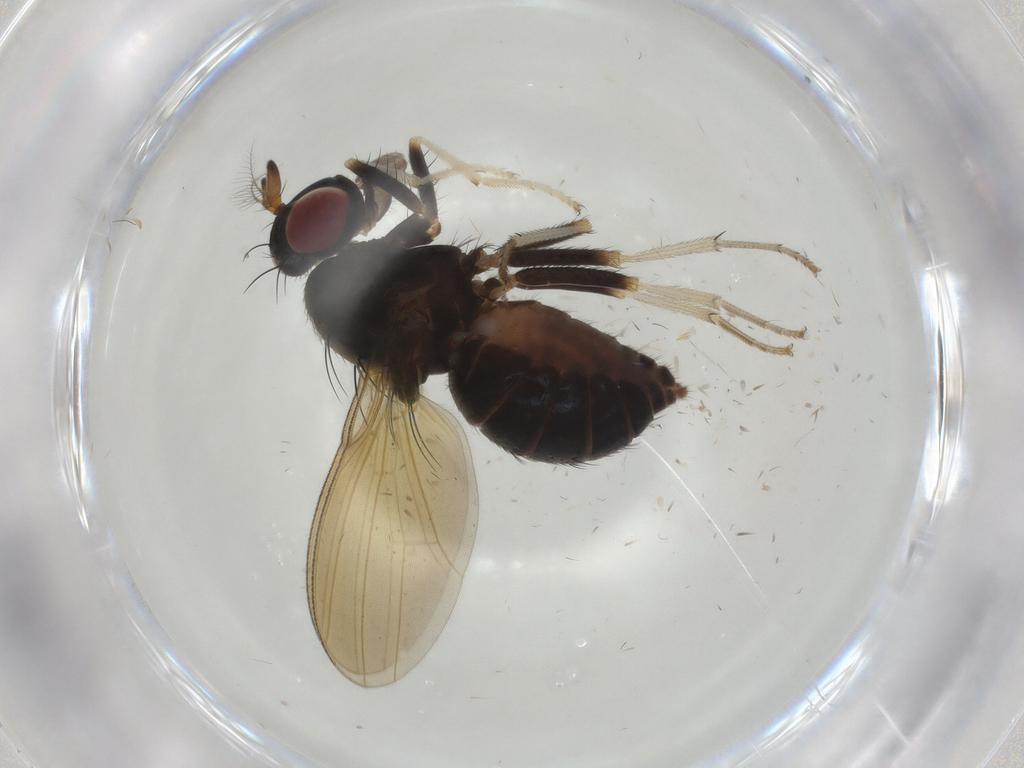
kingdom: Animalia
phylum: Arthropoda
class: Insecta
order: Diptera
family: Lauxaniidae
